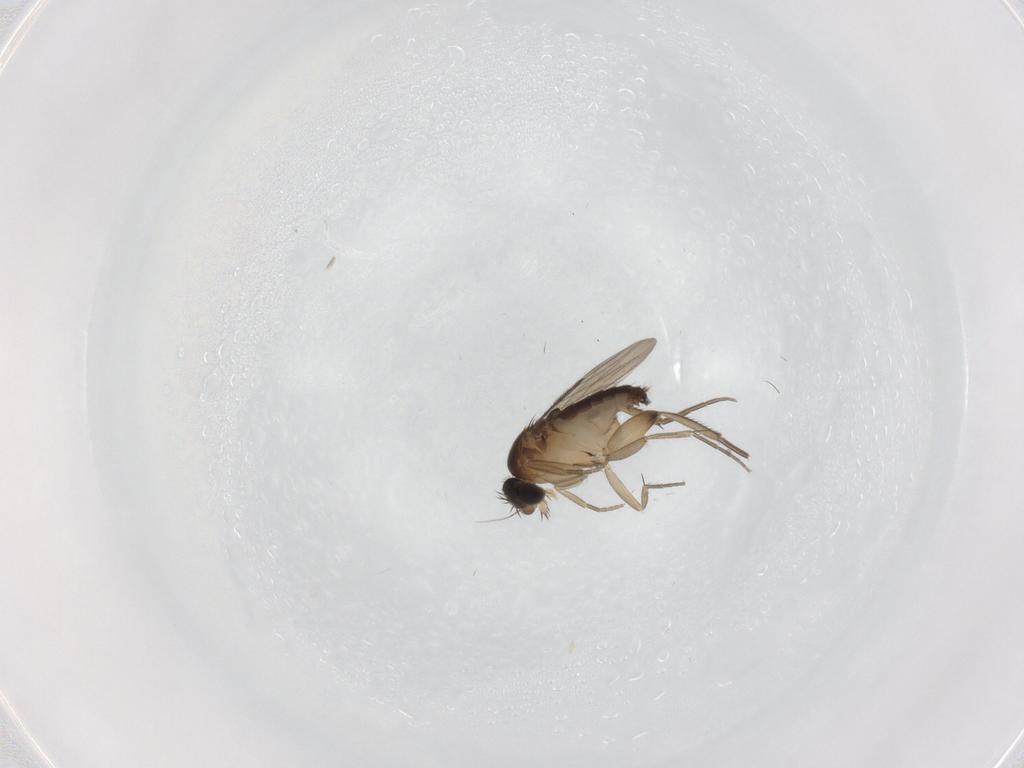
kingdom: Animalia
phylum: Arthropoda
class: Insecta
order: Diptera
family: Phoridae
